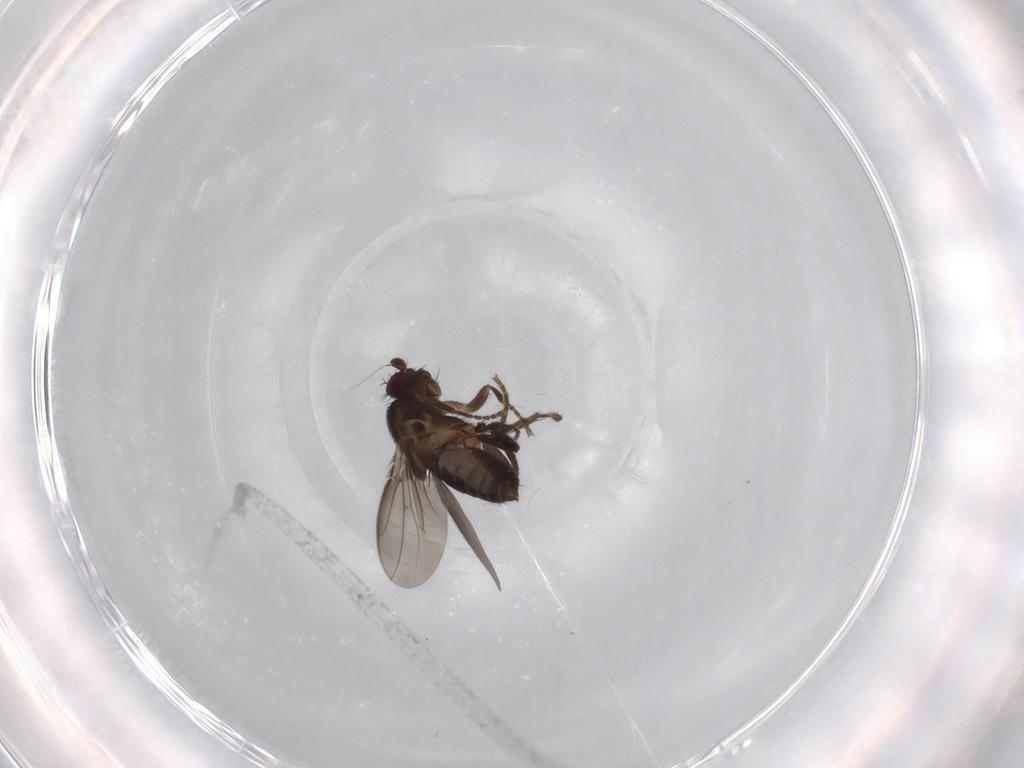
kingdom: Animalia
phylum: Arthropoda
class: Insecta
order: Diptera
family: Sphaeroceridae
